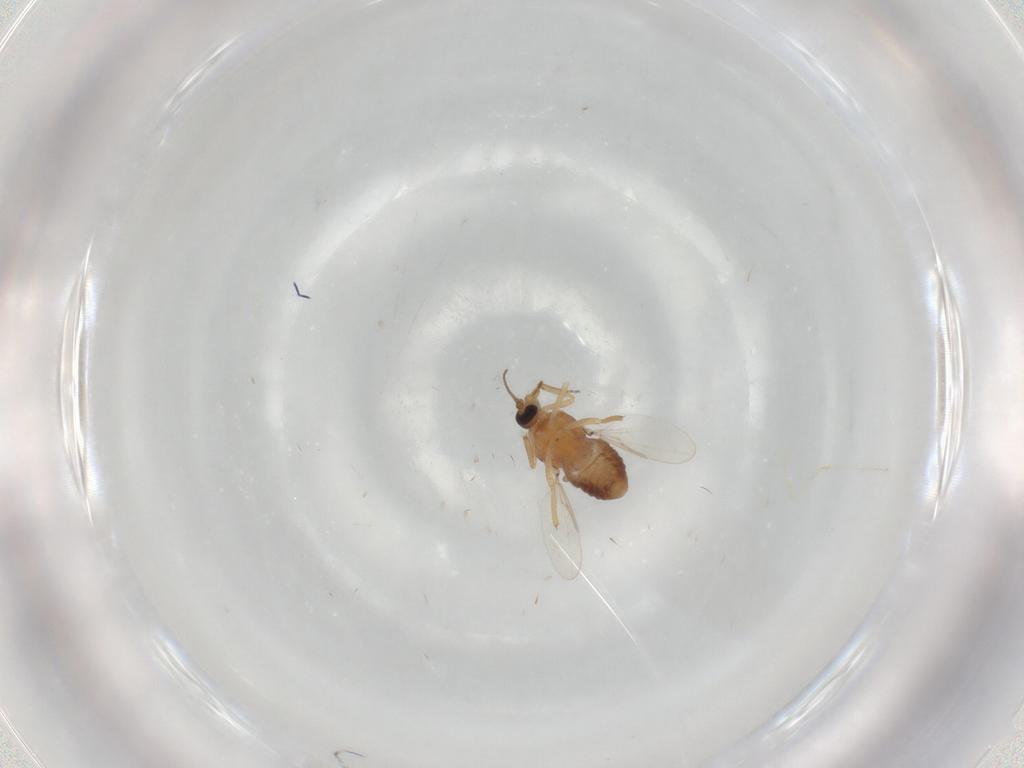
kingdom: Animalia
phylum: Arthropoda
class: Insecta
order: Diptera
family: Ceratopogonidae
